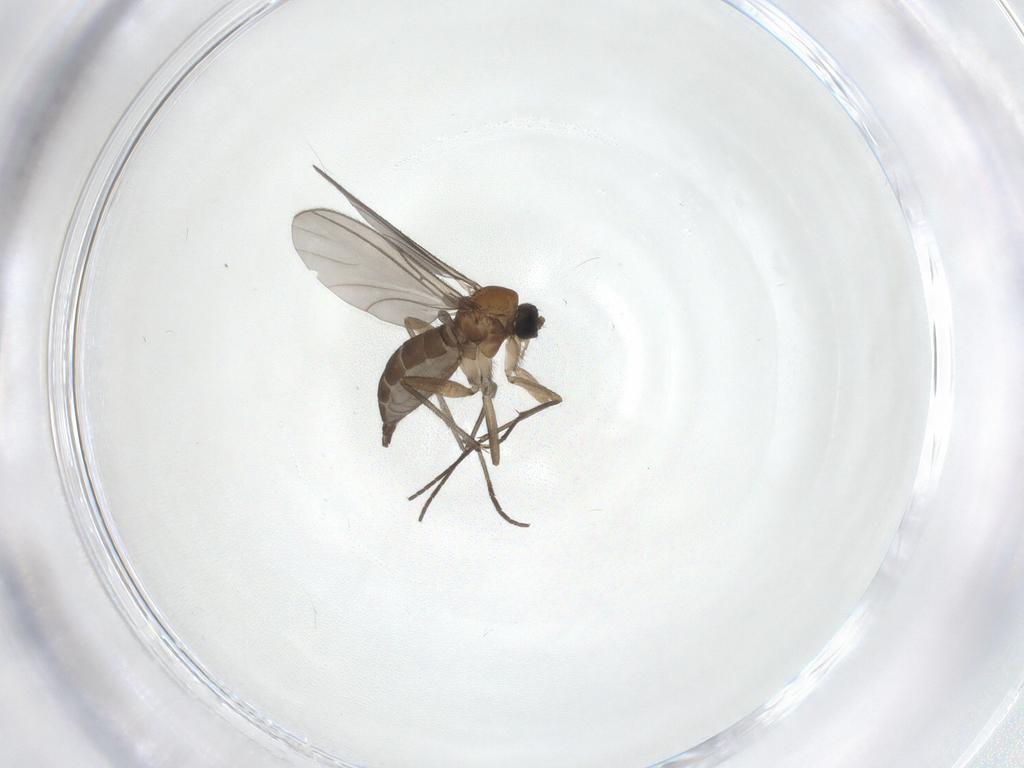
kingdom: Animalia
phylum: Arthropoda
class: Insecta
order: Diptera
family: Sciaridae
